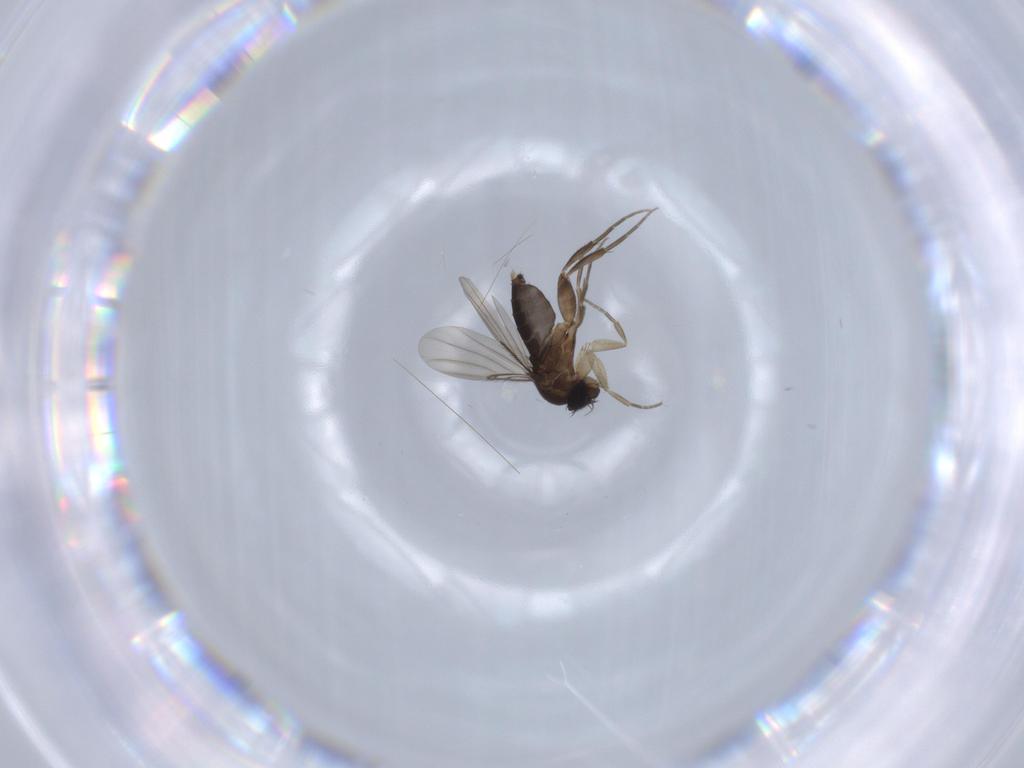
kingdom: Animalia
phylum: Arthropoda
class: Insecta
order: Diptera
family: Phoridae
